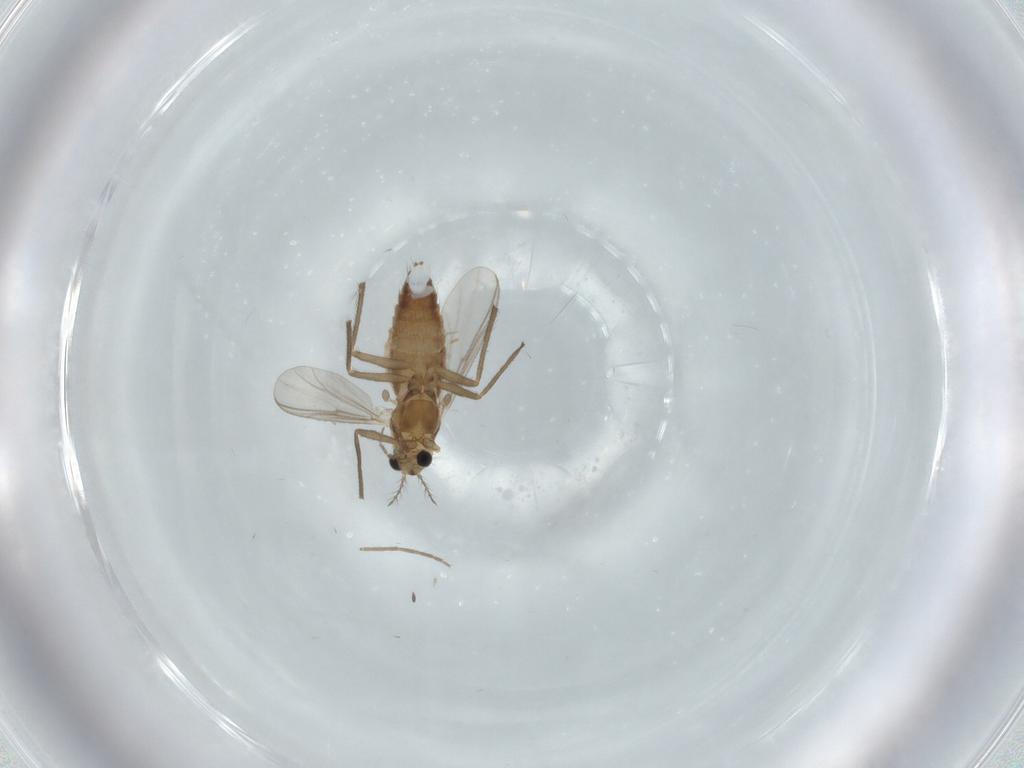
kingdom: Animalia
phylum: Arthropoda
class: Insecta
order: Diptera
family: Chironomidae
